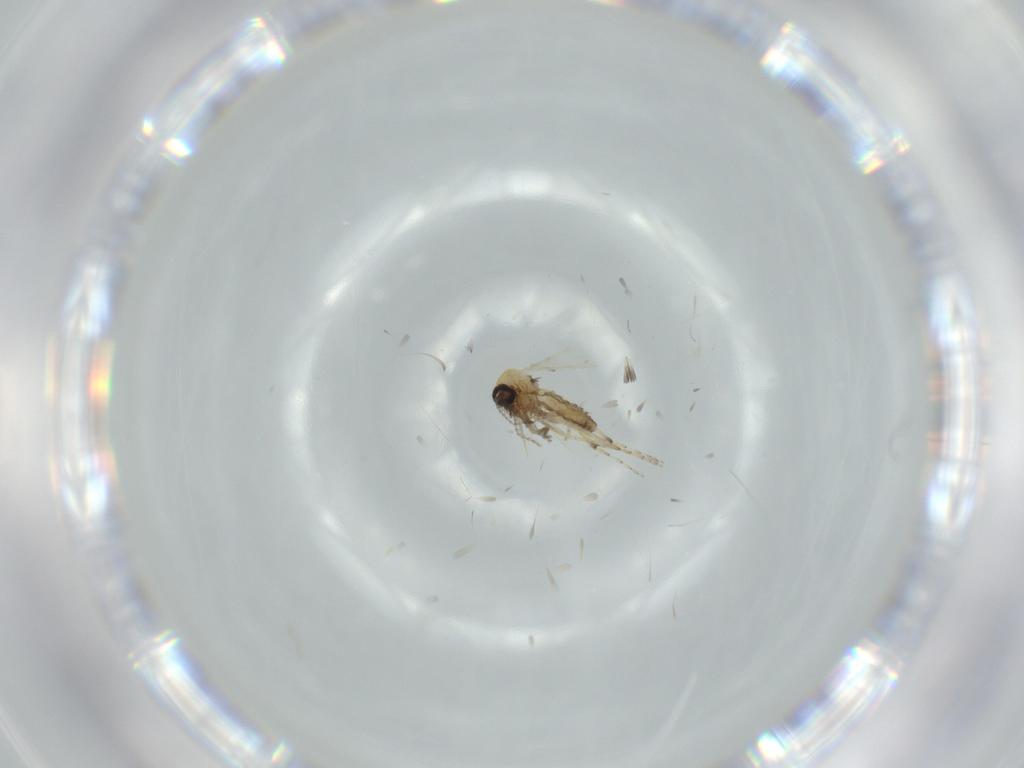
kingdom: Animalia
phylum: Arthropoda
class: Insecta
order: Diptera
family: Ceratopogonidae
